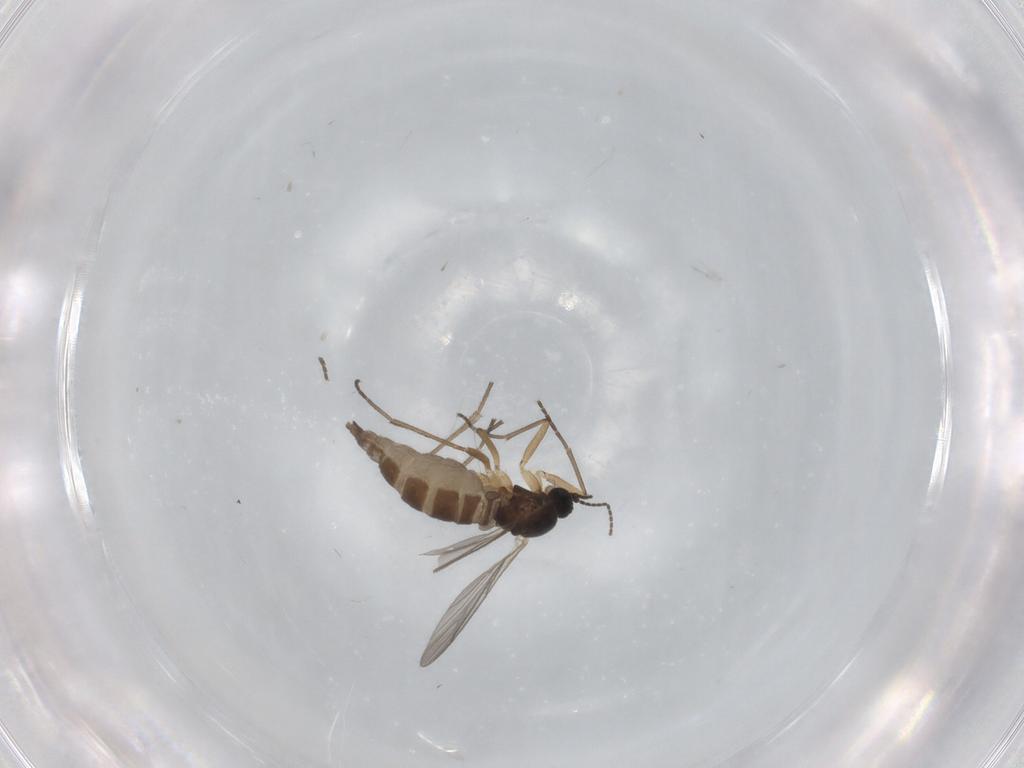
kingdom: Animalia
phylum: Arthropoda
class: Insecta
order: Diptera
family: Sciaridae
